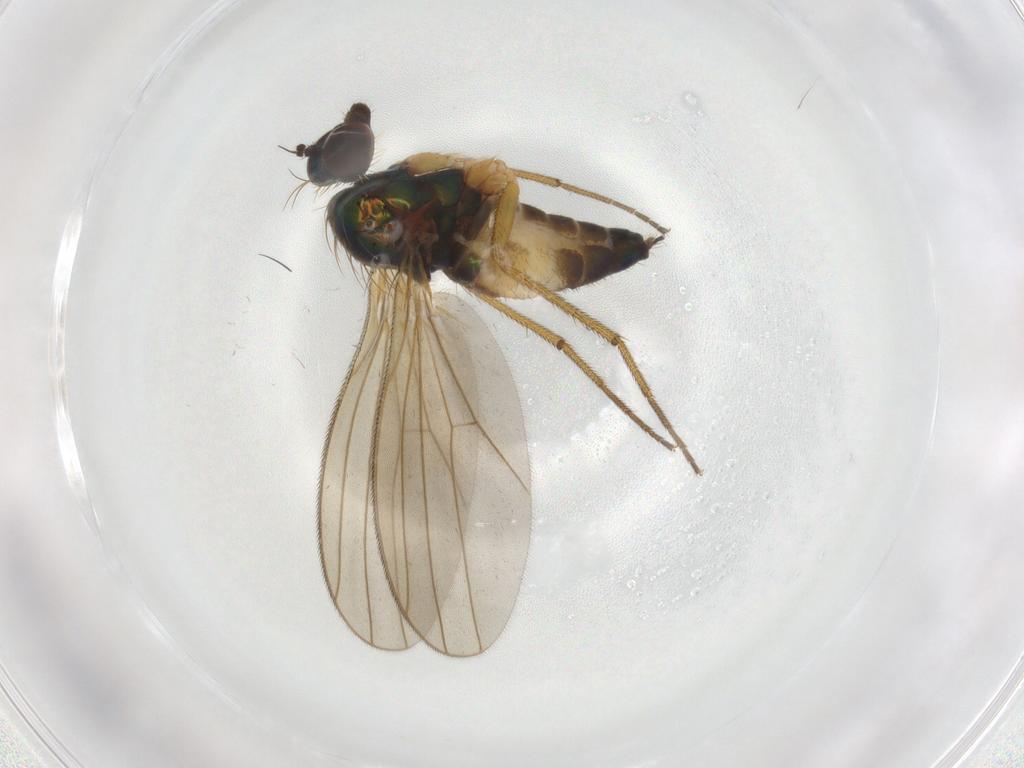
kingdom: Animalia
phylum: Arthropoda
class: Insecta
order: Diptera
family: Dolichopodidae
